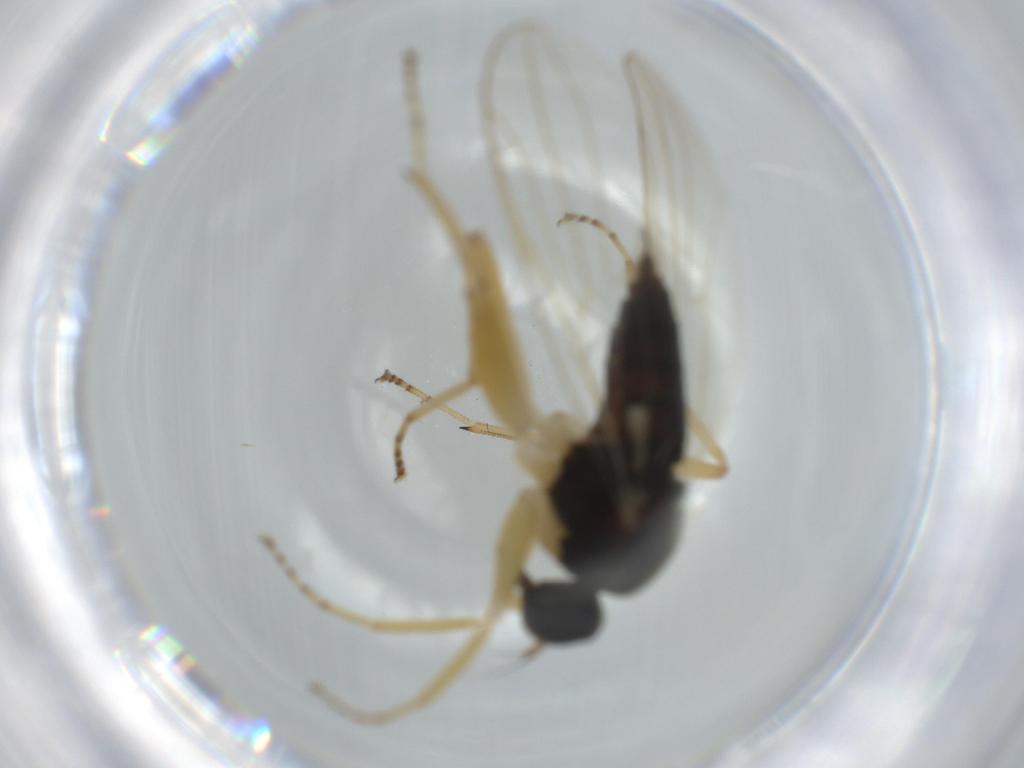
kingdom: Animalia
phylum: Arthropoda
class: Insecta
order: Diptera
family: Hybotidae
